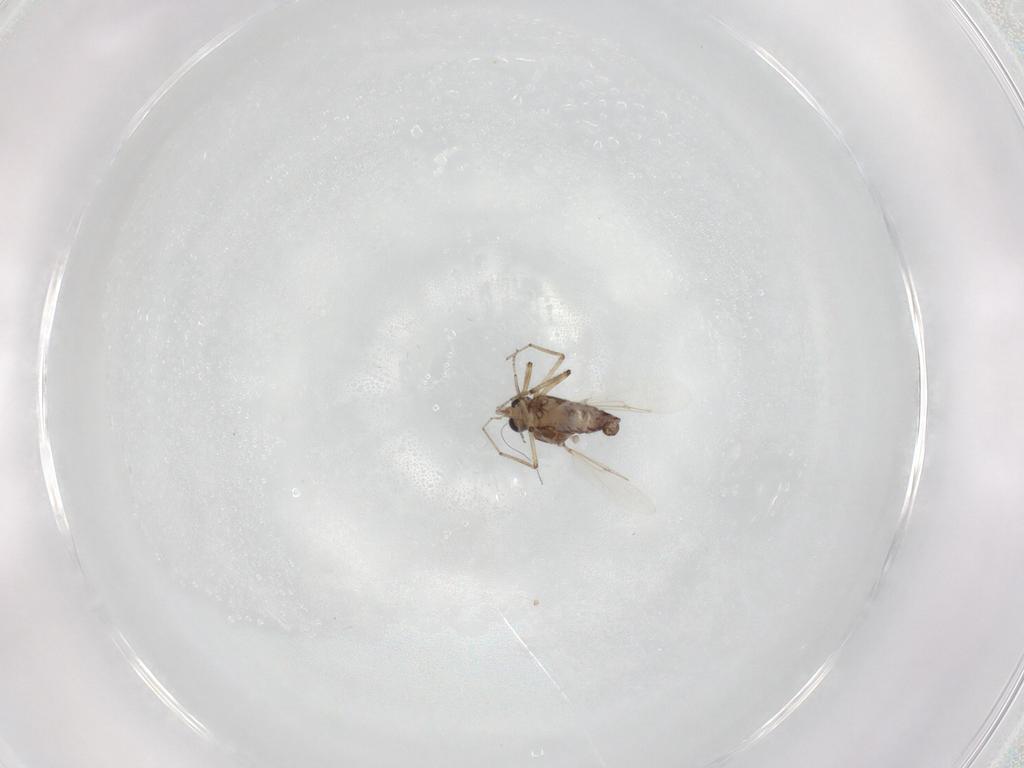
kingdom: Animalia
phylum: Arthropoda
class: Insecta
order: Diptera
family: Ceratopogonidae
